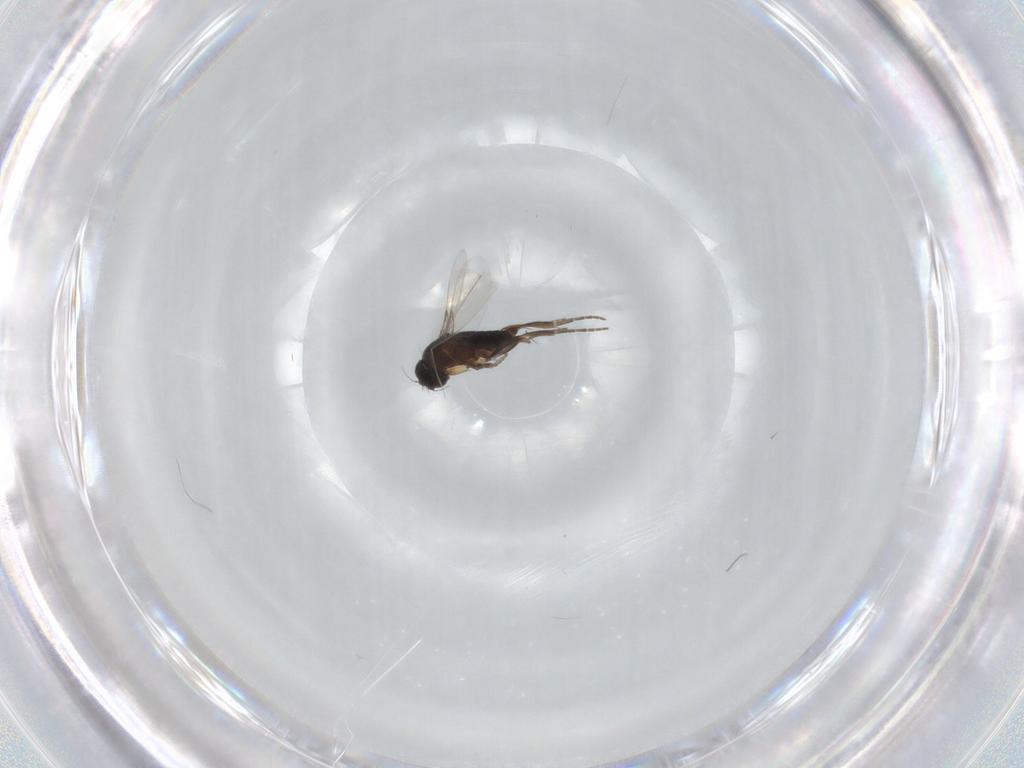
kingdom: Animalia
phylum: Arthropoda
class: Insecta
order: Diptera
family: Phoridae
